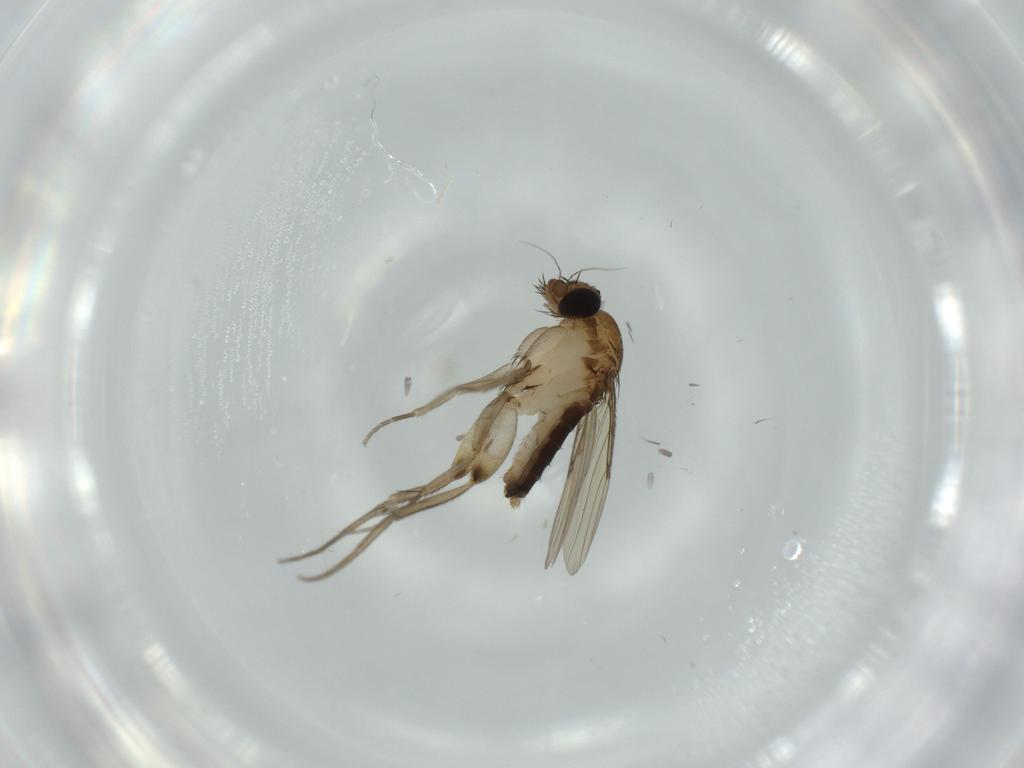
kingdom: Animalia
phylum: Arthropoda
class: Insecta
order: Diptera
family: Phoridae
